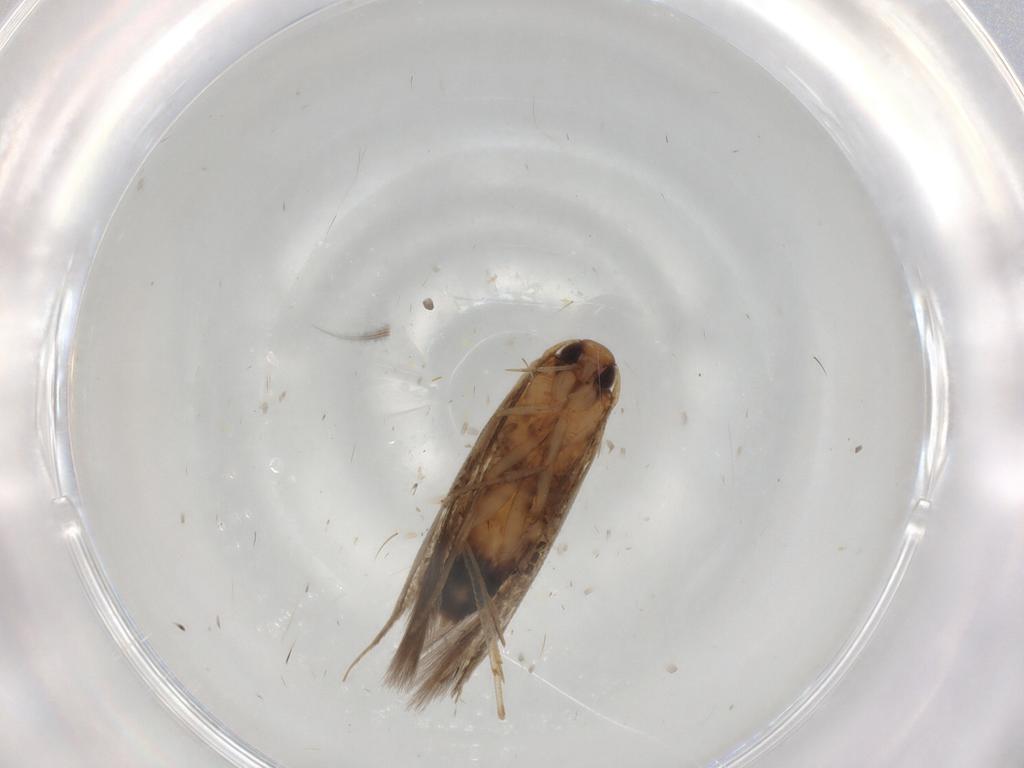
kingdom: Animalia
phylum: Arthropoda
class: Insecta
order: Lepidoptera
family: Cosmopterigidae
